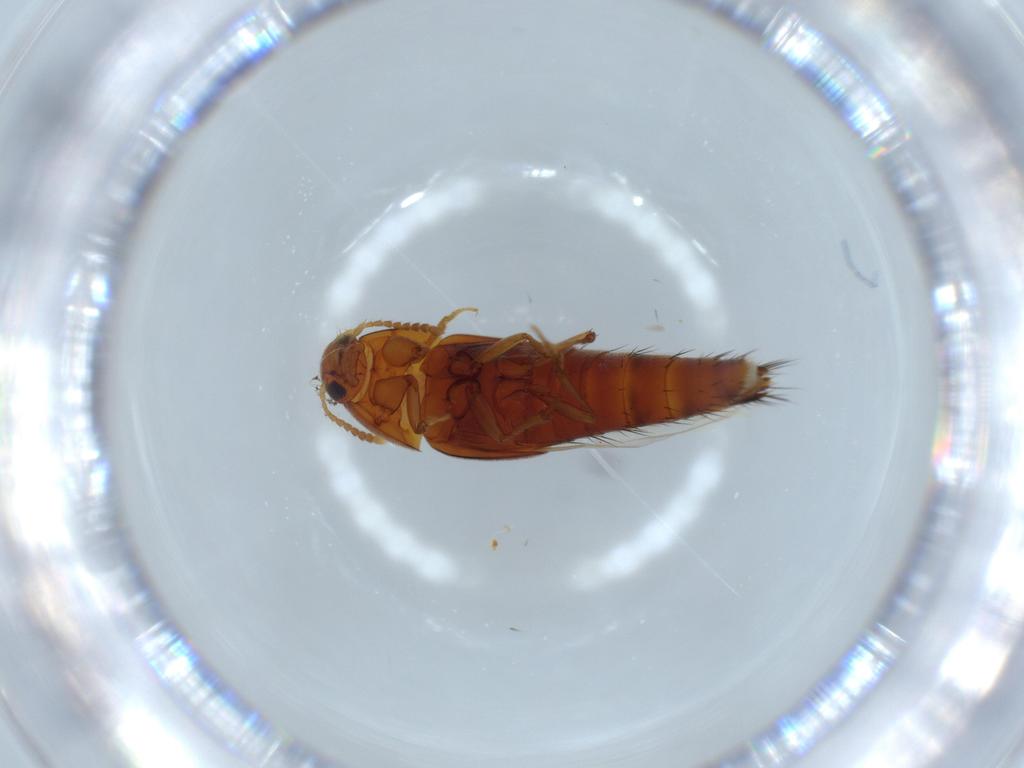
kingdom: Animalia
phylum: Arthropoda
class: Insecta
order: Coleoptera
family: Staphylinidae
